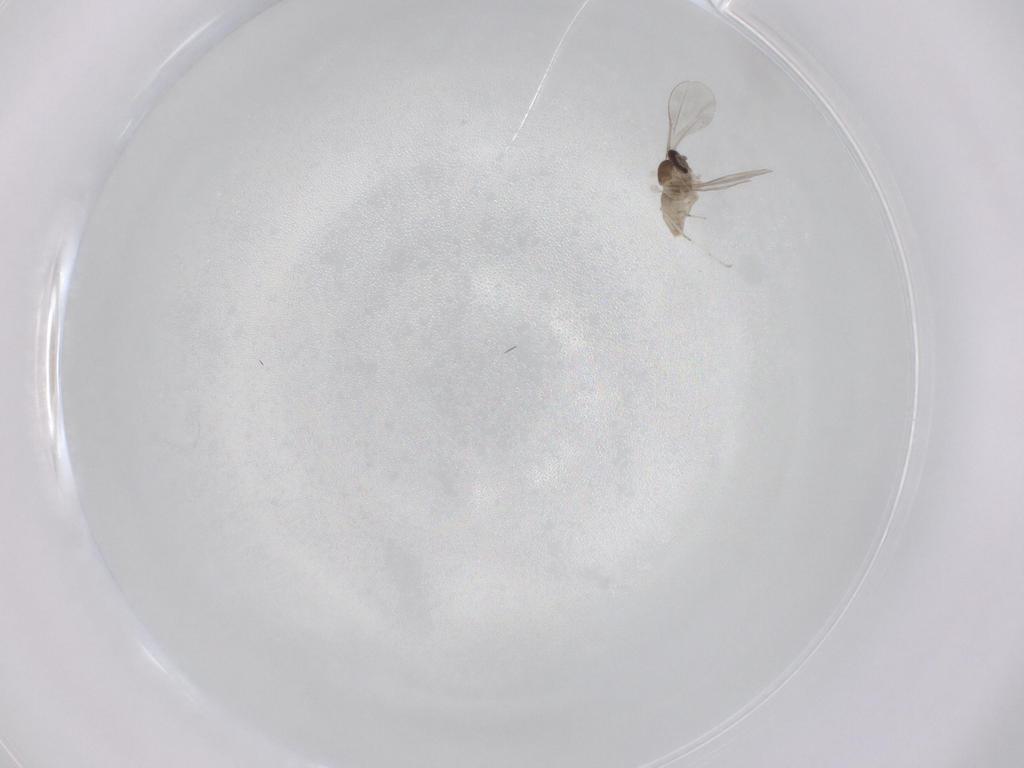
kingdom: Animalia
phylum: Arthropoda
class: Insecta
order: Diptera
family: Cecidomyiidae
